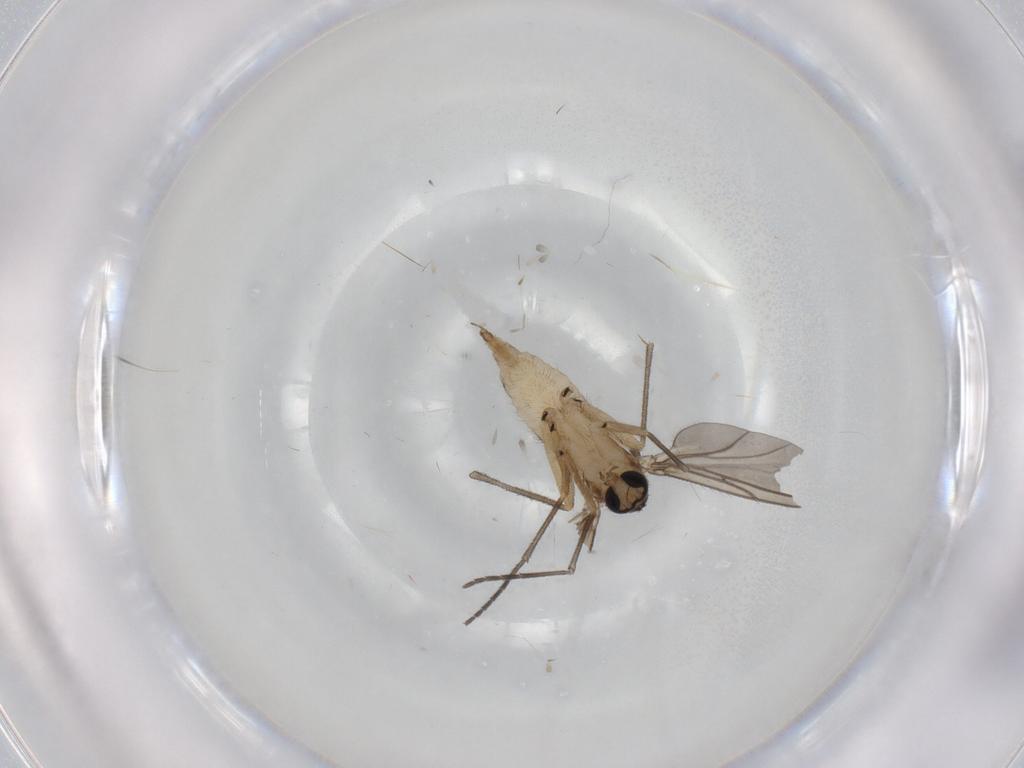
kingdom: Animalia
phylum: Arthropoda
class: Insecta
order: Diptera
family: Sciaridae
